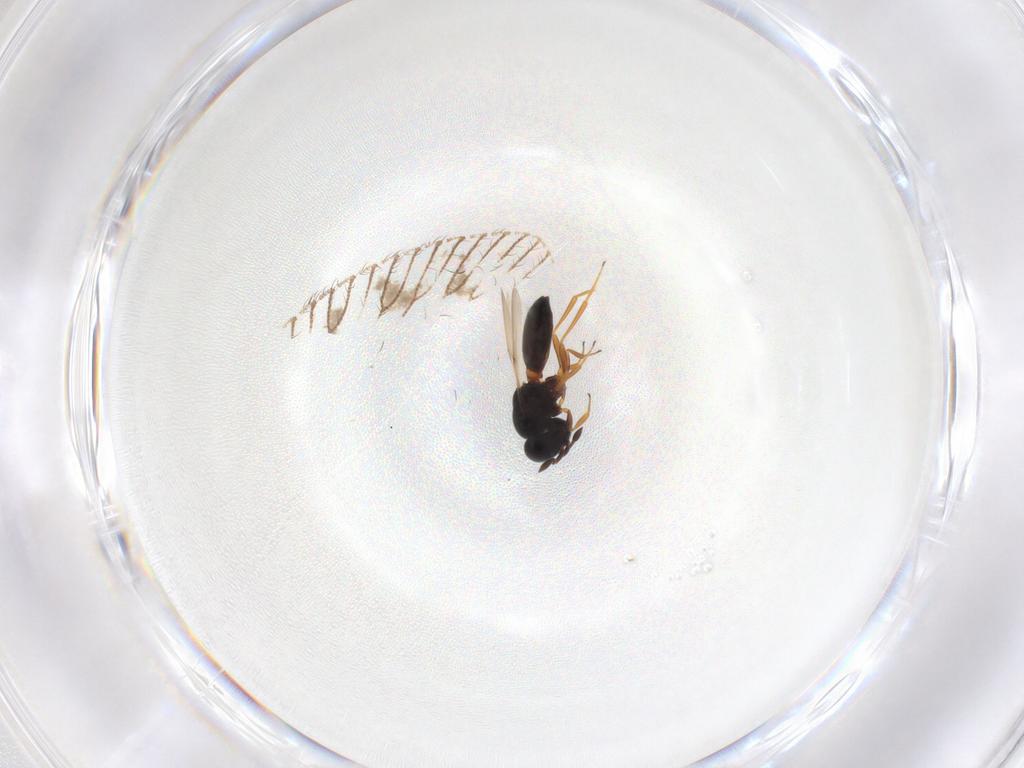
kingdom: Animalia
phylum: Arthropoda
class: Insecta
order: Hymenoptera
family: Scelionidae
